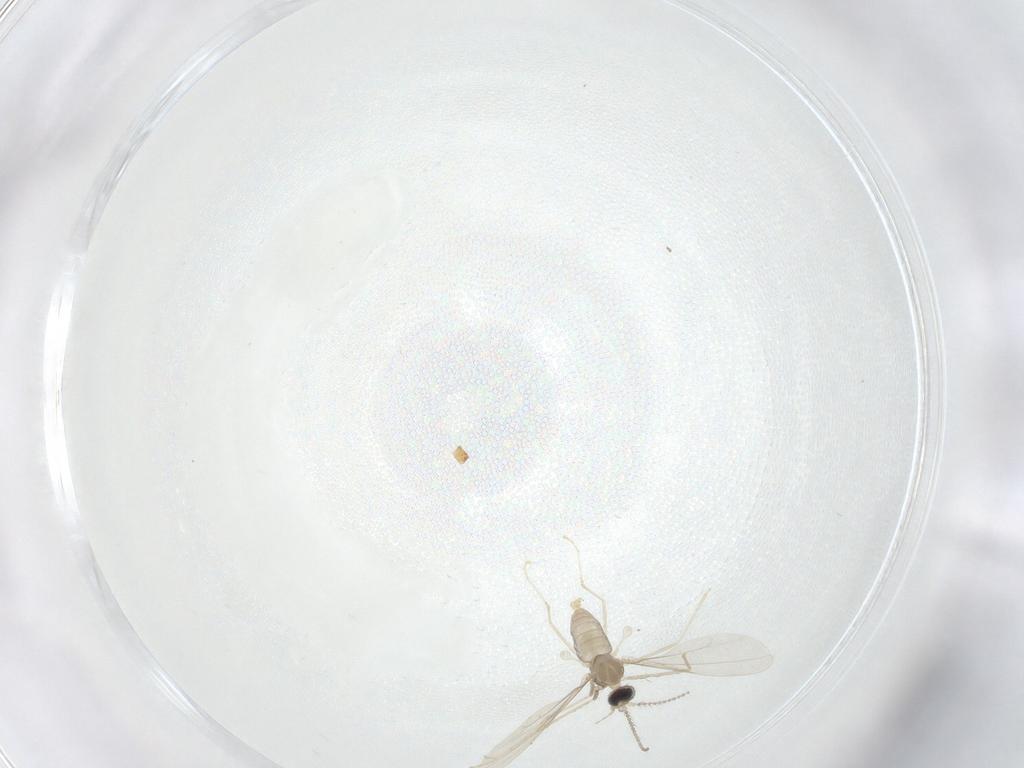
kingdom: Animalia
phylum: Arthropoda
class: Insecta
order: Diptera
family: Cecidomyiidae
